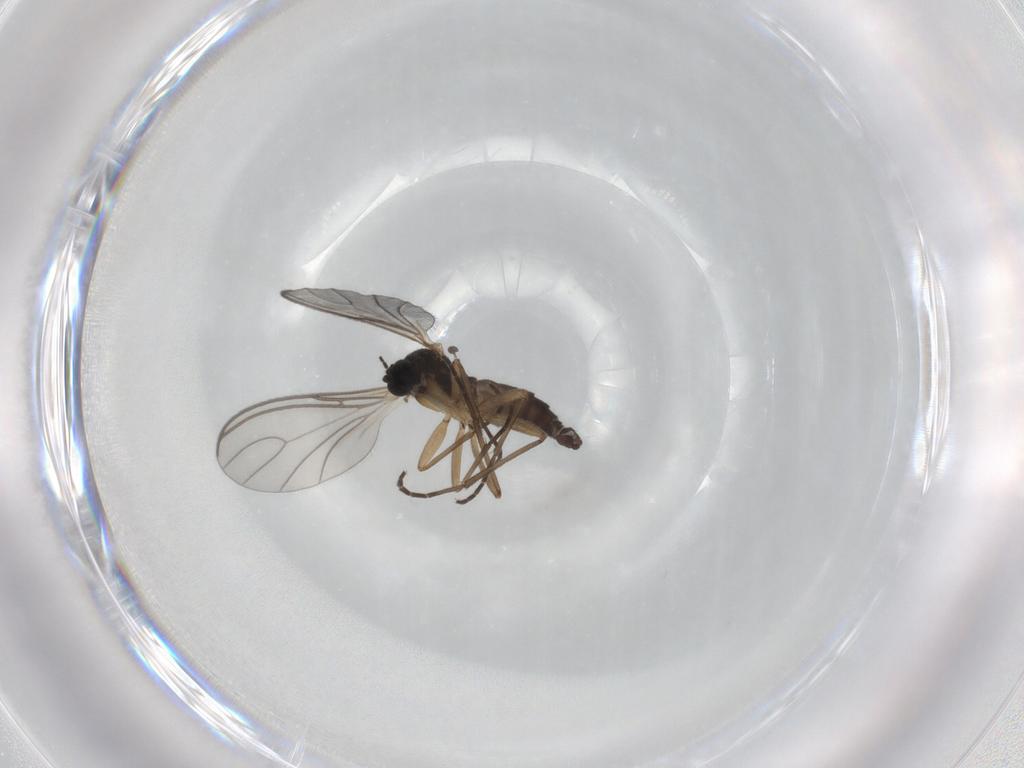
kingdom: Animalia
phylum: Arthropoda
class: Insecta
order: Diptera
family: Sciaridae
